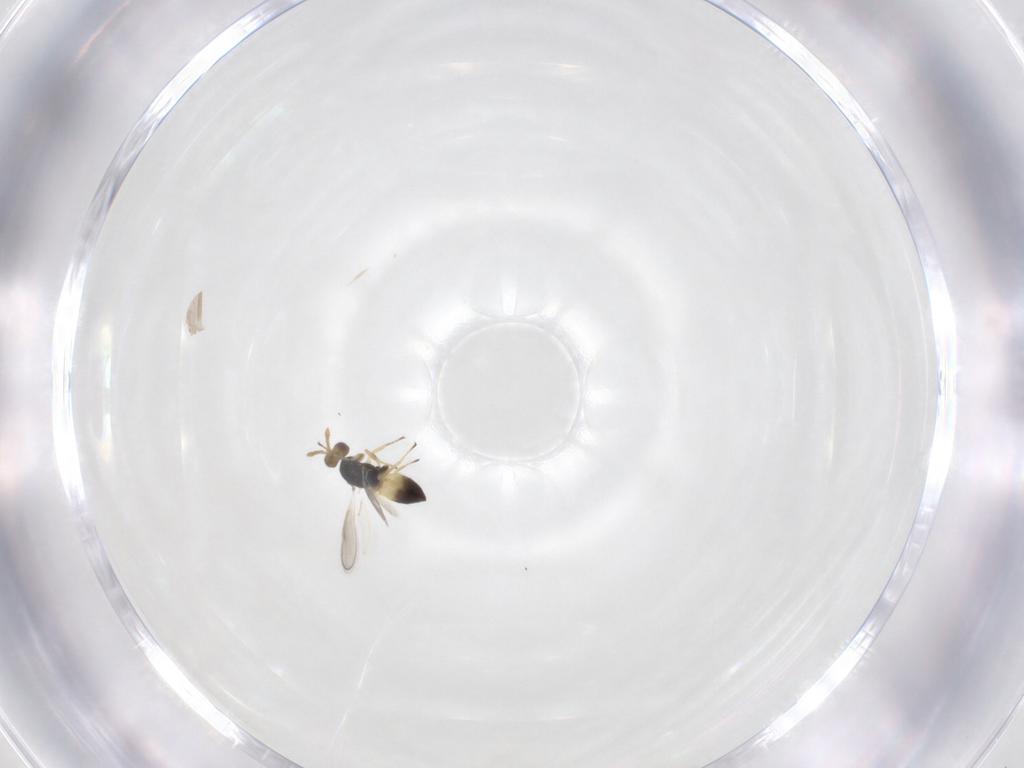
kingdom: Animalia
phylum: Arthropoda
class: Insecta
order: Hymenoptera
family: Eulophidae
